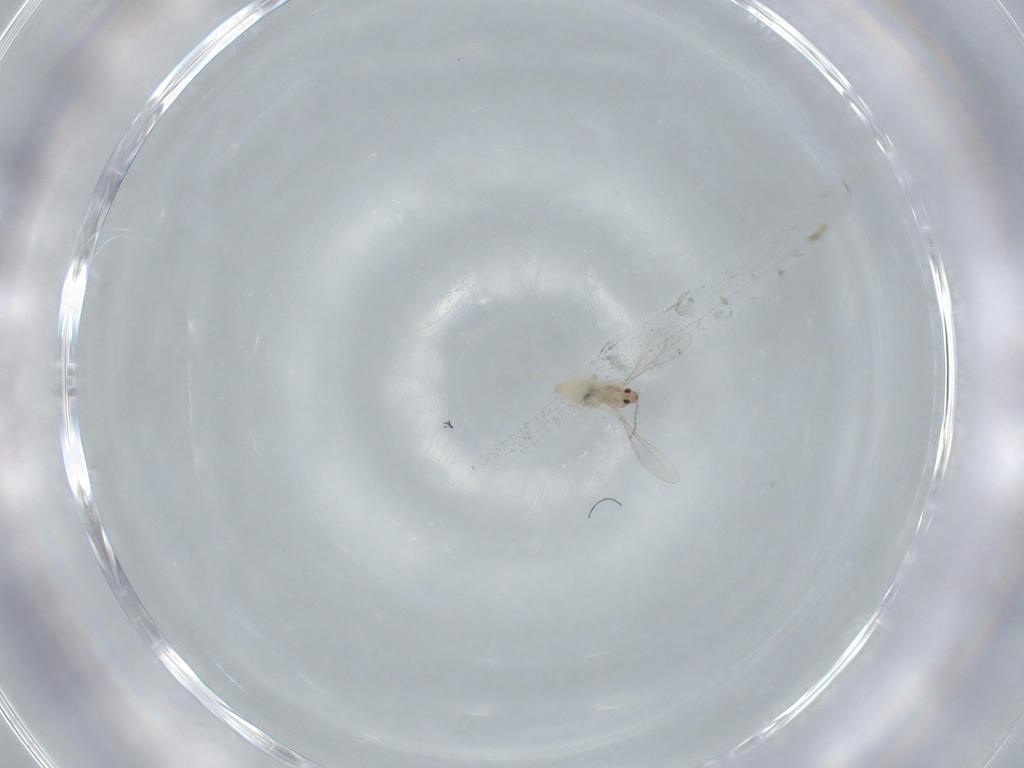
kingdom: Animalia
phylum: Arthropoda
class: Insecta
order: Diptera
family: Cecidomyiidae
